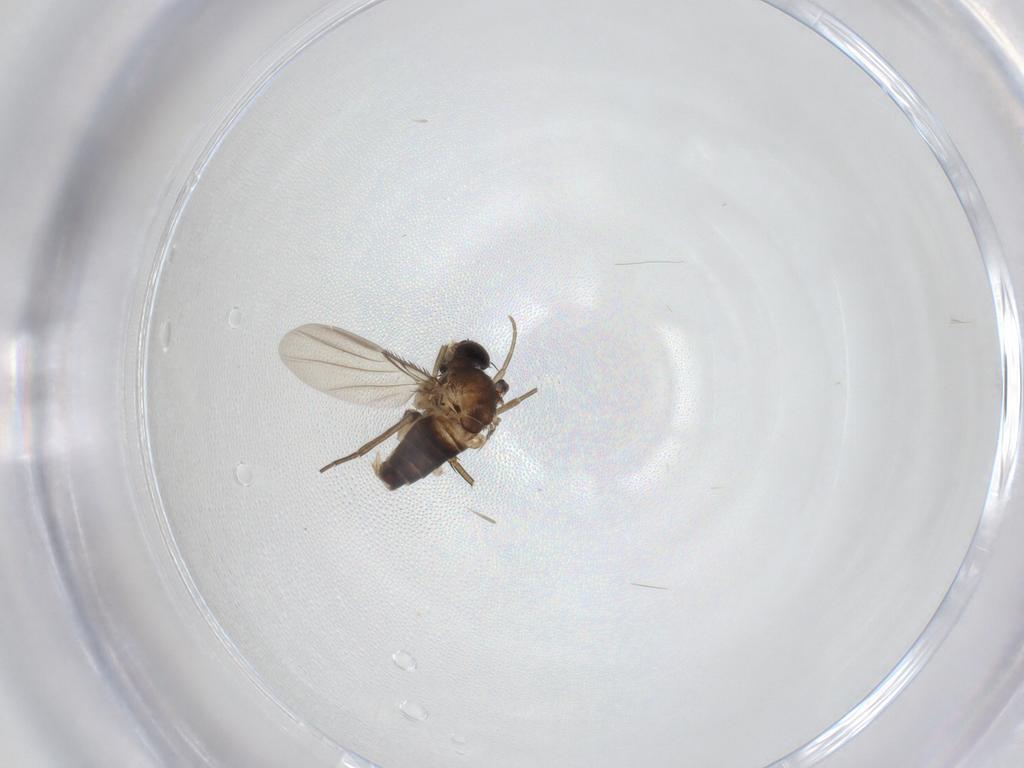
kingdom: Animalia
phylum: Arthropoda
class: Insecta
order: Diptera
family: Phoridae
